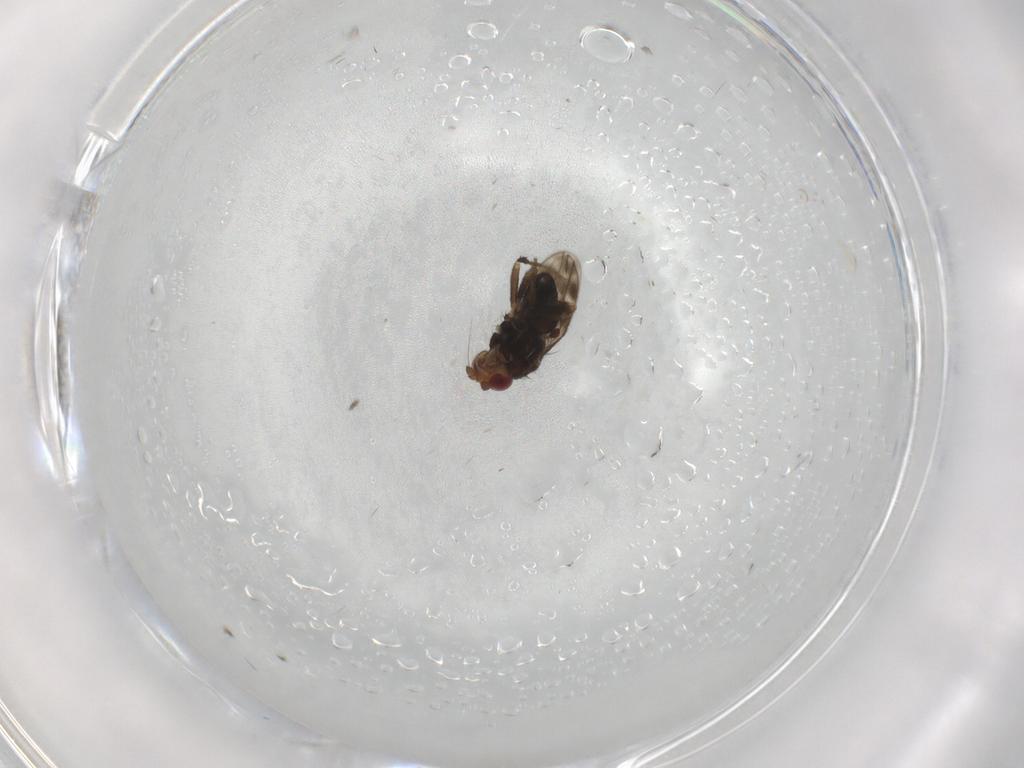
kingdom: Animalia
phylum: Arthropoda
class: Insecta
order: Diptera
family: Sphaeroceridae
